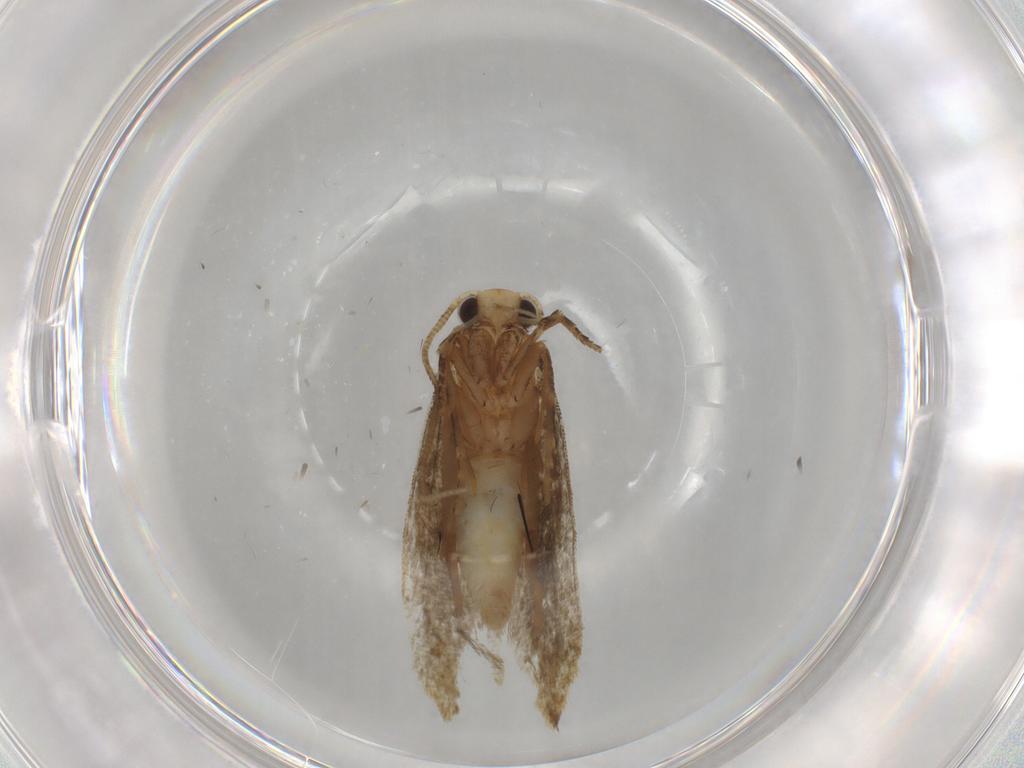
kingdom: Animalia
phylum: Arthropoda
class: Insecta
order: Lepidoptera
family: Tineidae
